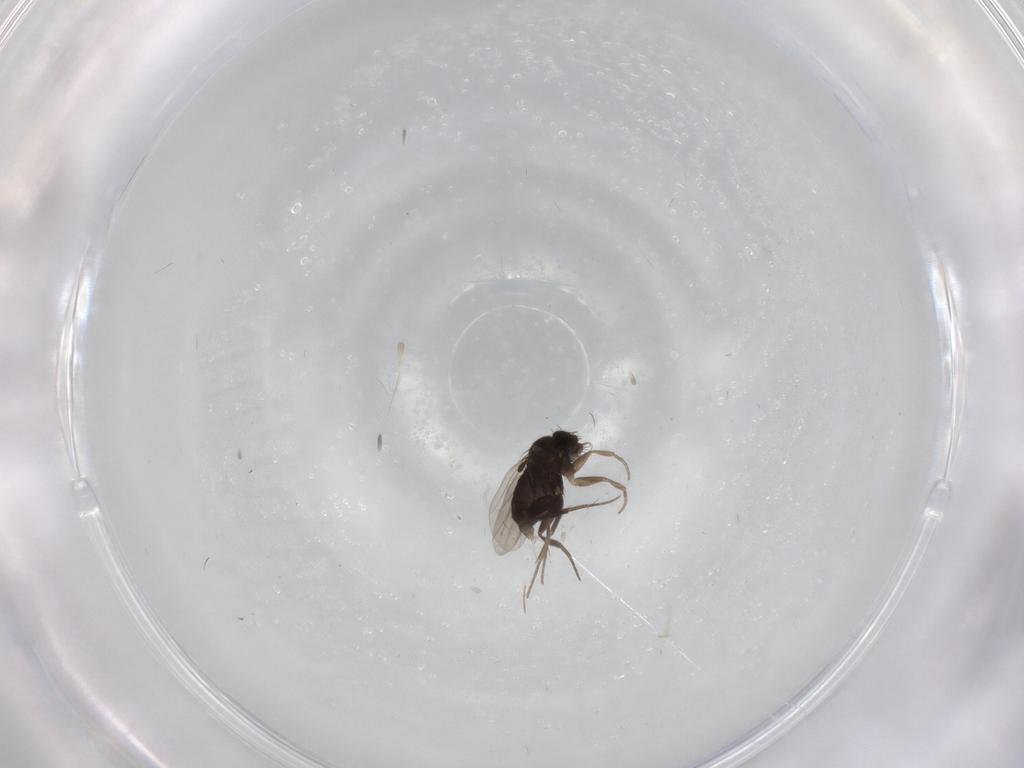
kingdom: Animalia
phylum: Arthropoda
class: Insecta
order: Diptera
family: Phoridae
